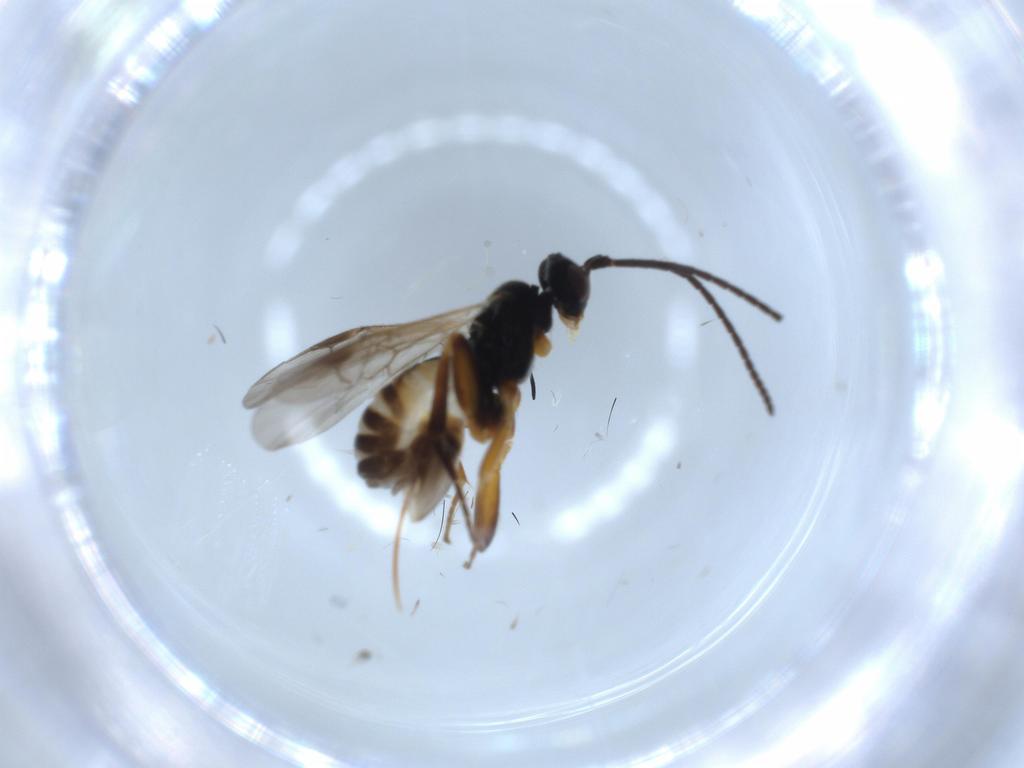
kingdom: Animalia
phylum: Arthropoda
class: Insecta
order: Hymenoptera
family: Braconidae
